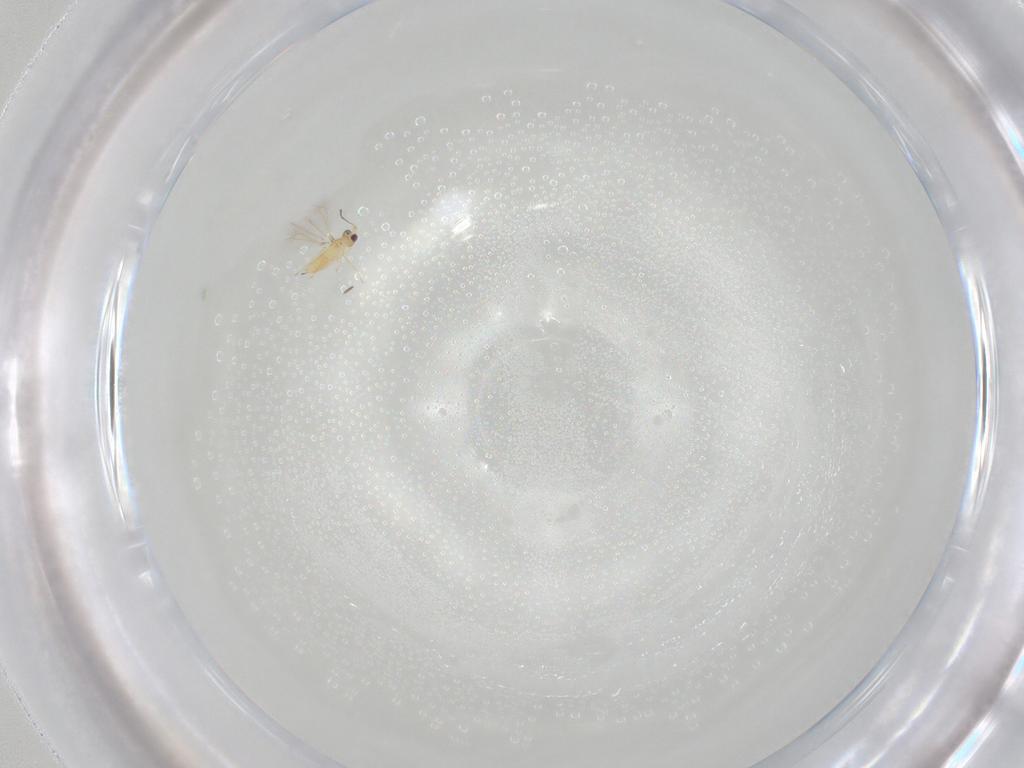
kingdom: Animalia
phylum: Arthropoda
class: Insecta
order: Hymenoptera
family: Mymaridae
